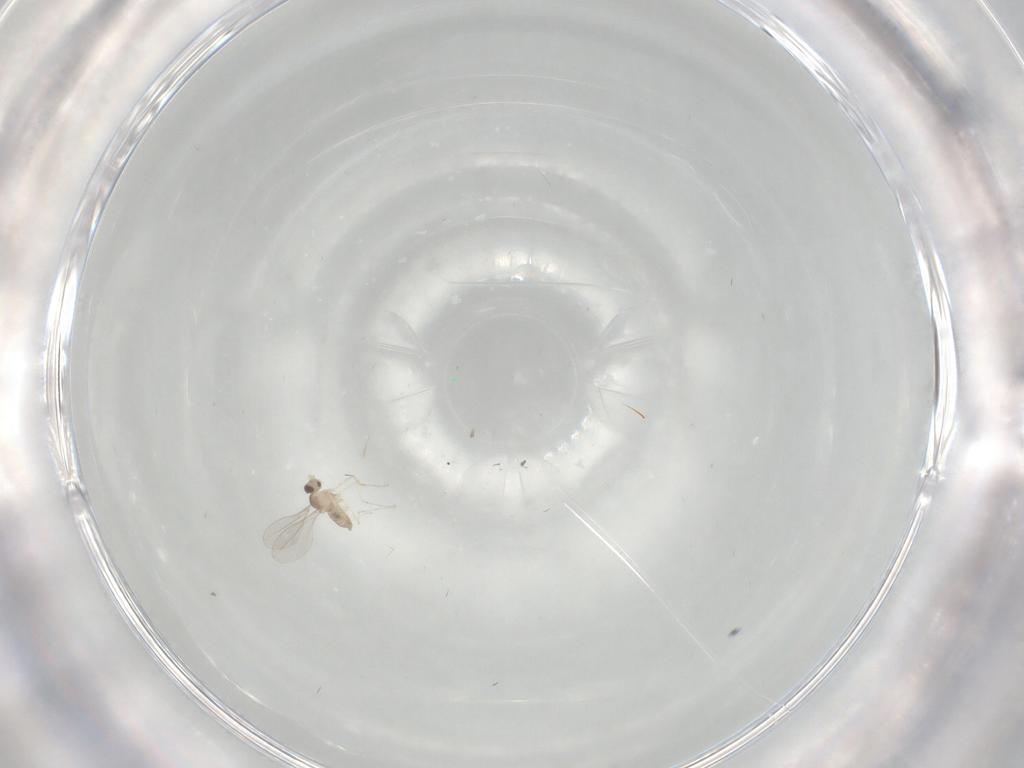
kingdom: Animalia
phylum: Arthropoda
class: Insecta
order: Diptera
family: Cecidomyiidae
